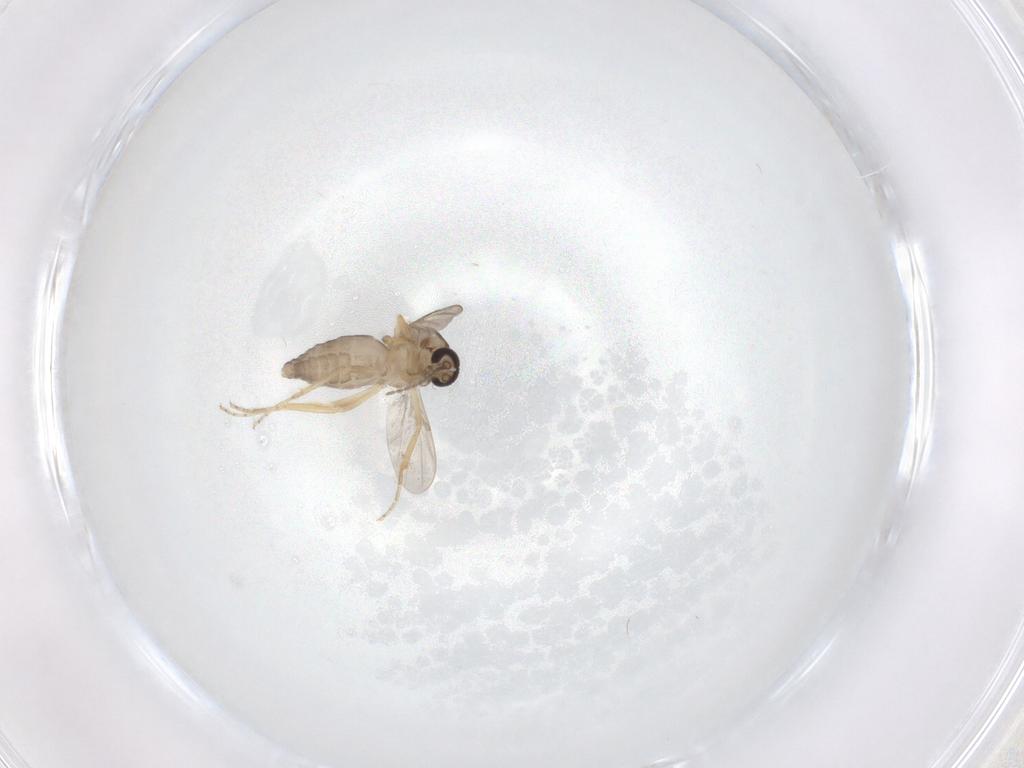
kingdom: Animalia
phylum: Arthropoda
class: Insecta
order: Diptera
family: Ceratopogonidae
